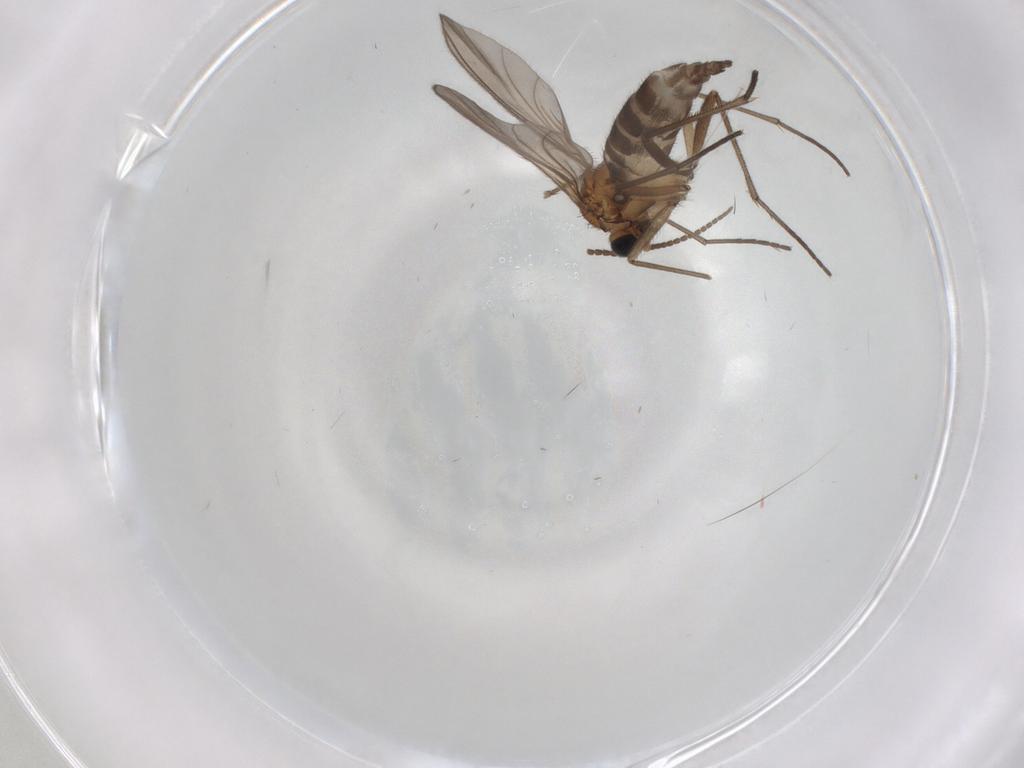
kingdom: Animalia
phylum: Arthropoda
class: Insecta
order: Diptera
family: Sciaridae
